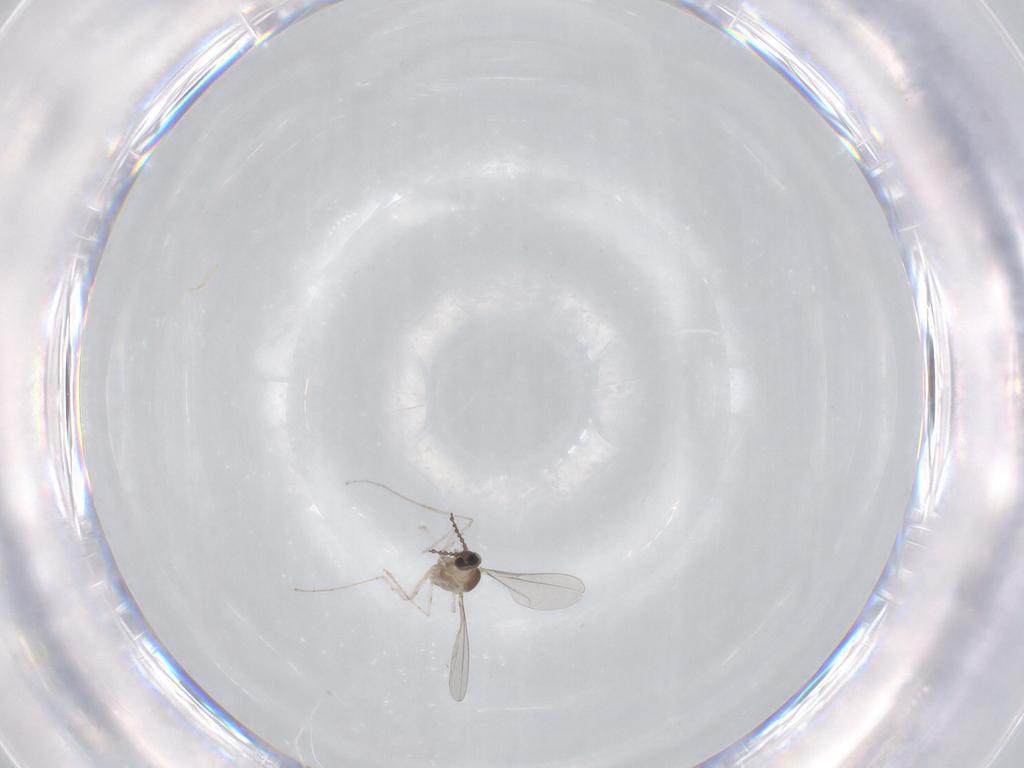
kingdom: Animalia
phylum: Arthropoda
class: Insecta
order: Diptera
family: Cecidomyiidae
